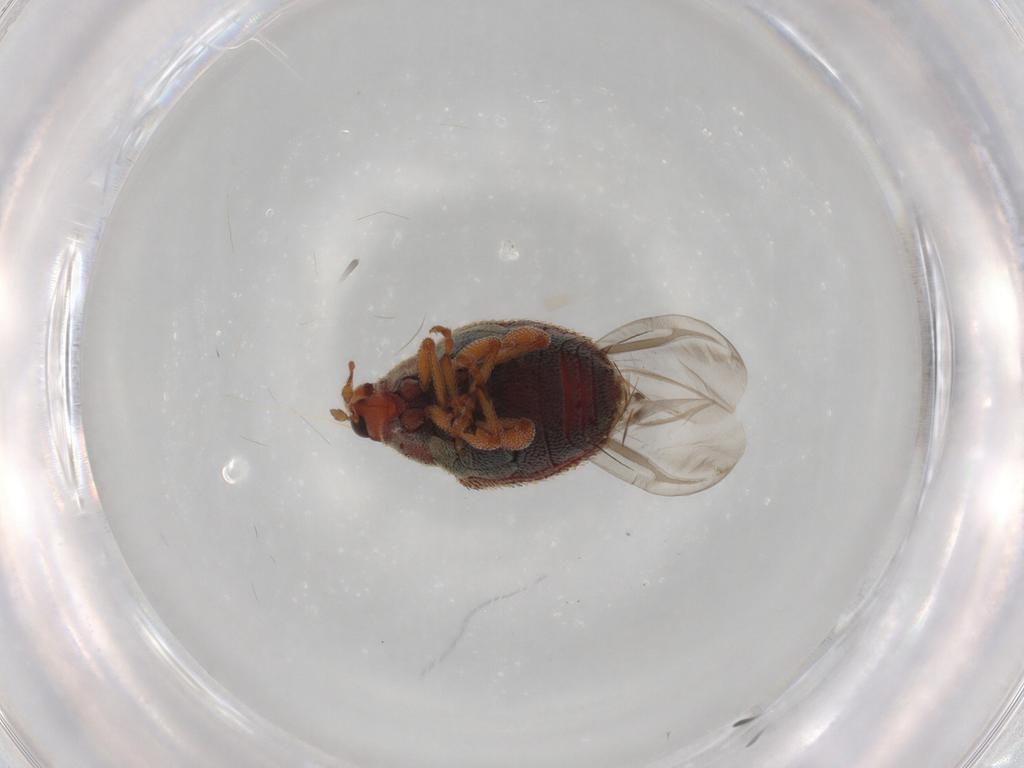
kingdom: Animalia
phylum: Arthropoda
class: Insecta
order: Coleoptera
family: Curculionidae
